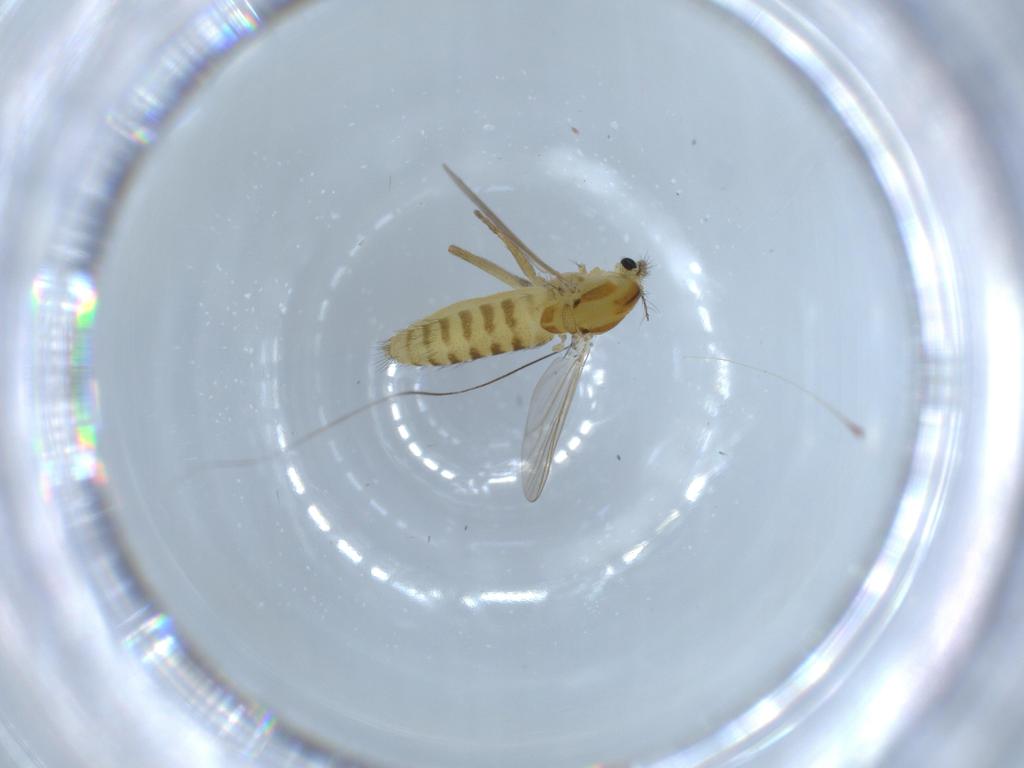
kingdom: Animalia
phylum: Arthropoda
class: Insecta
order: Diptera
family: Chironomidae
